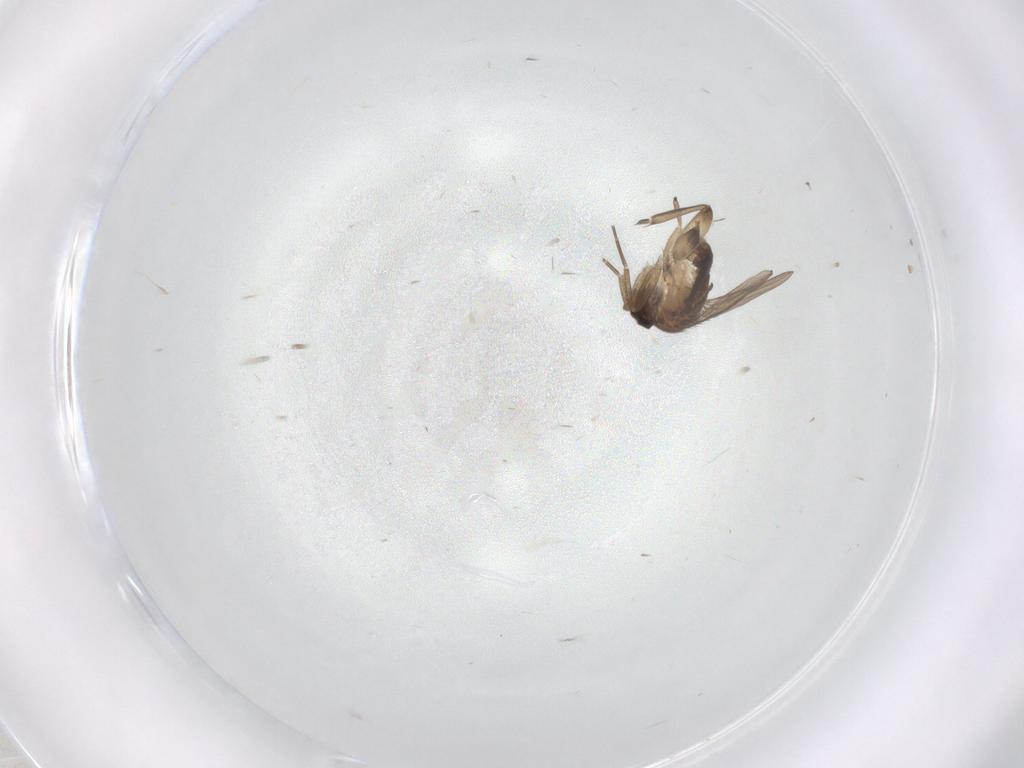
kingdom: Animalia
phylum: Arthropoda
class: Insecta
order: Diptera
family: Phoridae
